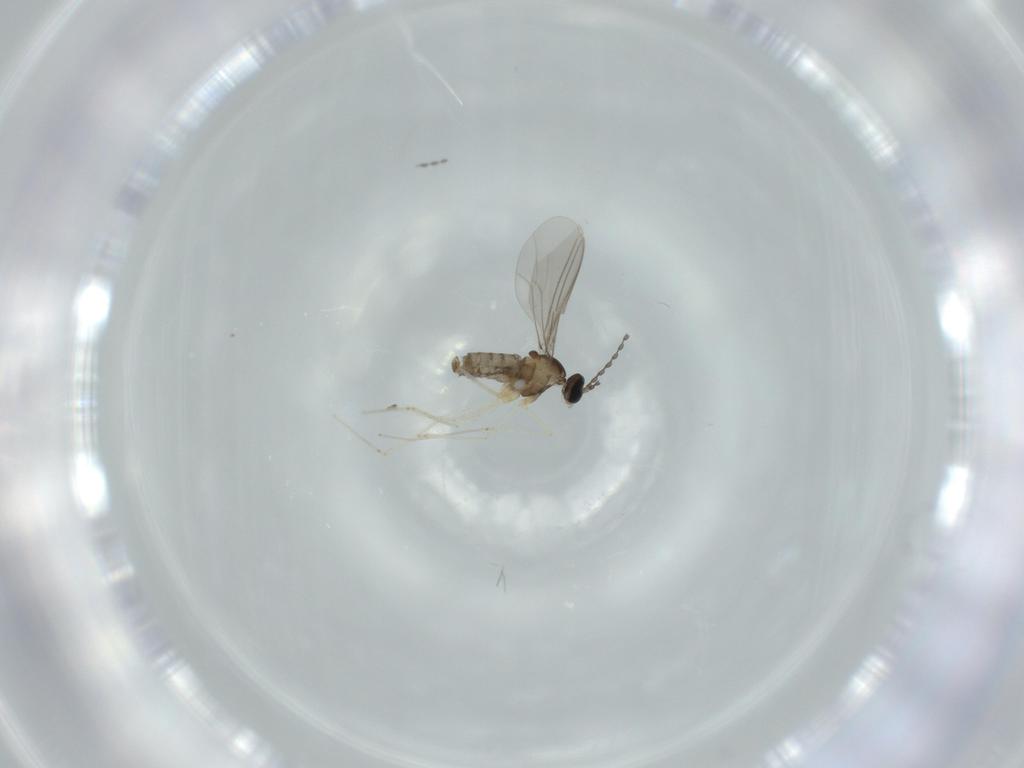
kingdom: Animalia
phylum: Arthropoda
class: Insecta
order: Diptera
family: Cecidomyiidae
